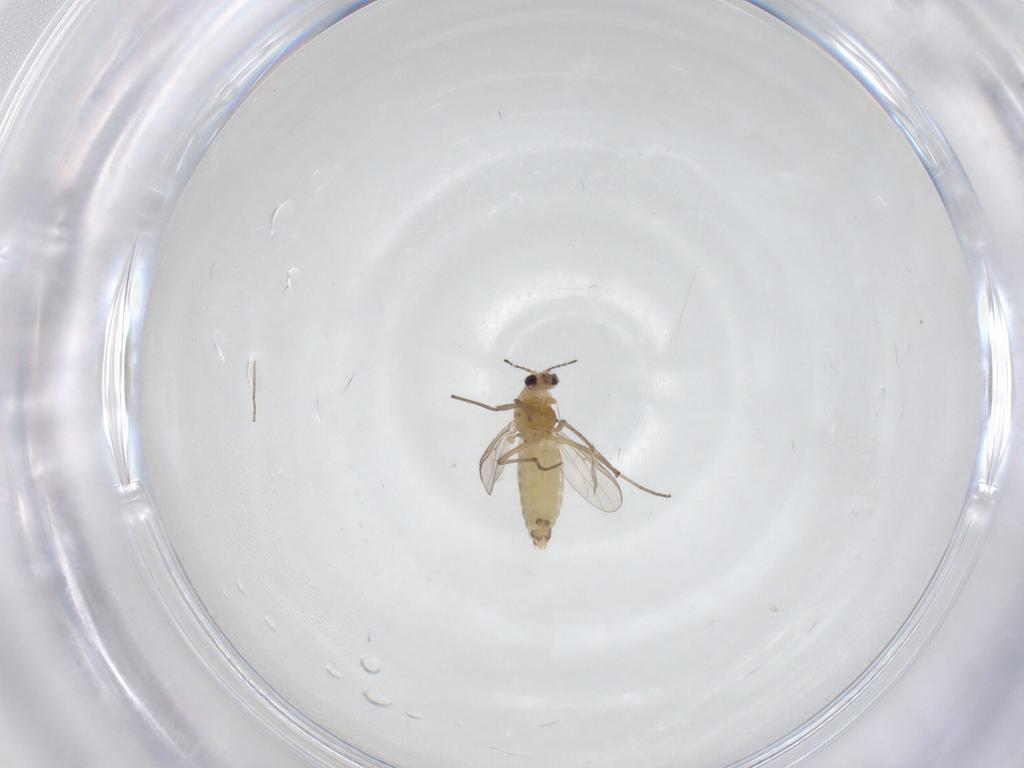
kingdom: Animalia
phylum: Arthropoda
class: Insecta
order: Diptera
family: Chironomidae
